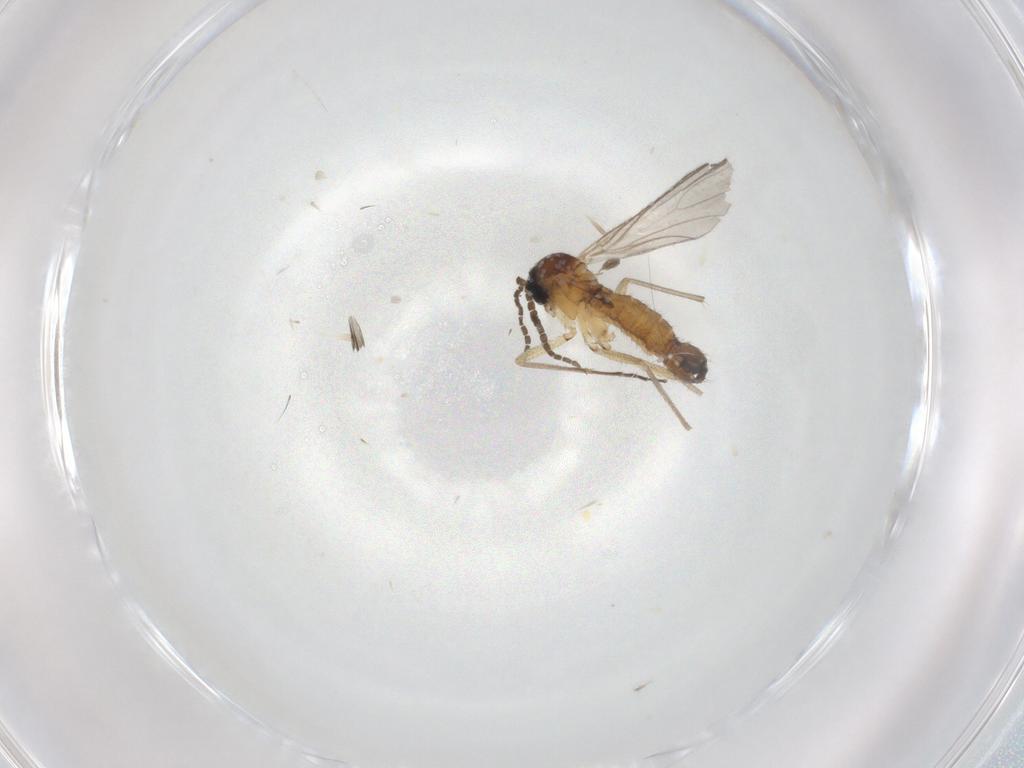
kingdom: Animalia
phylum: Arthropoda
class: Insecta
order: Diptera
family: Sciaridae
